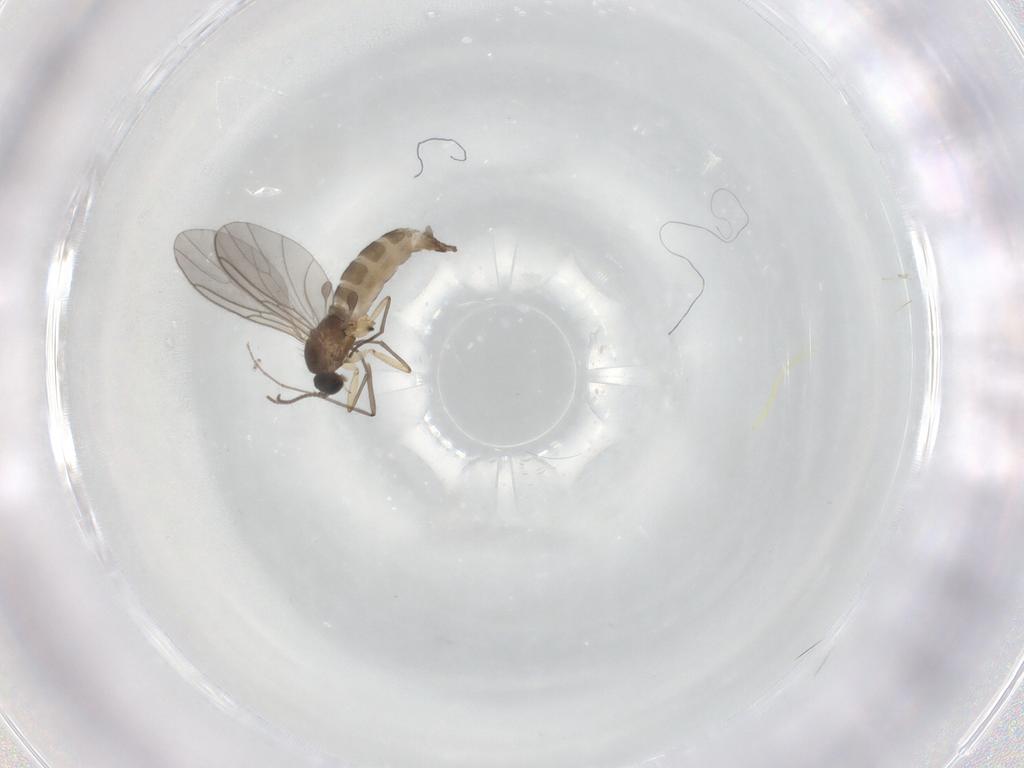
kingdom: Animalia
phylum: Arthropoda
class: Insecta
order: Diptera
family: Sciaridae
